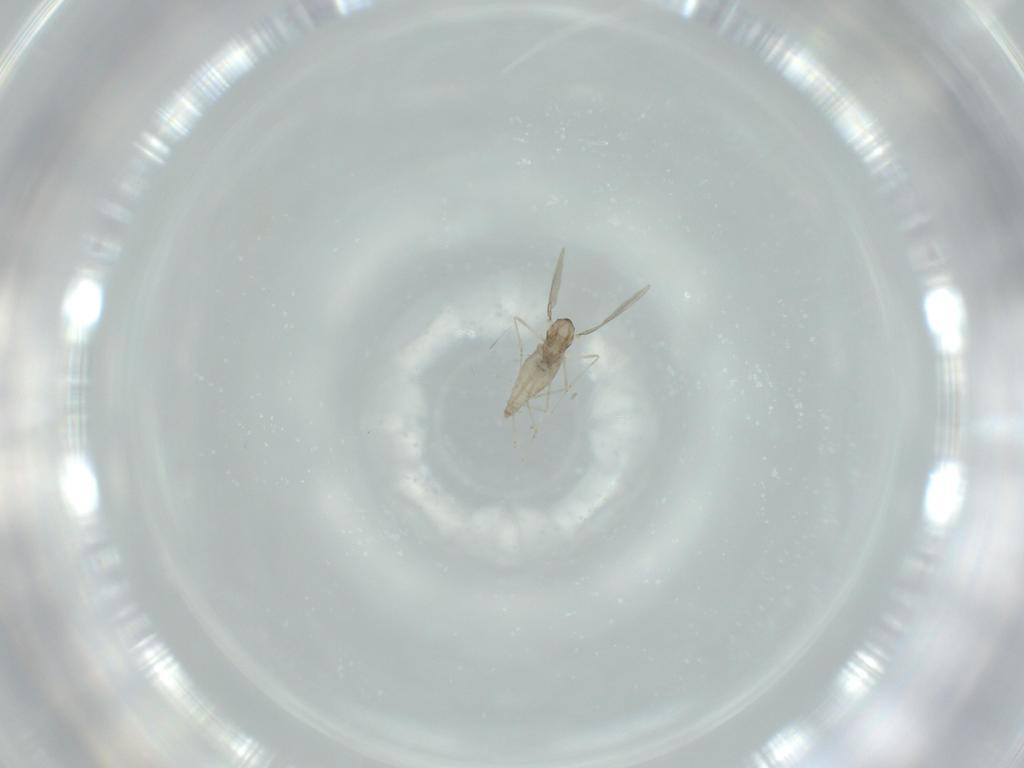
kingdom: Animalia
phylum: Arthropoda
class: Insecta
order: Diptera
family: Cecidomyiidae
